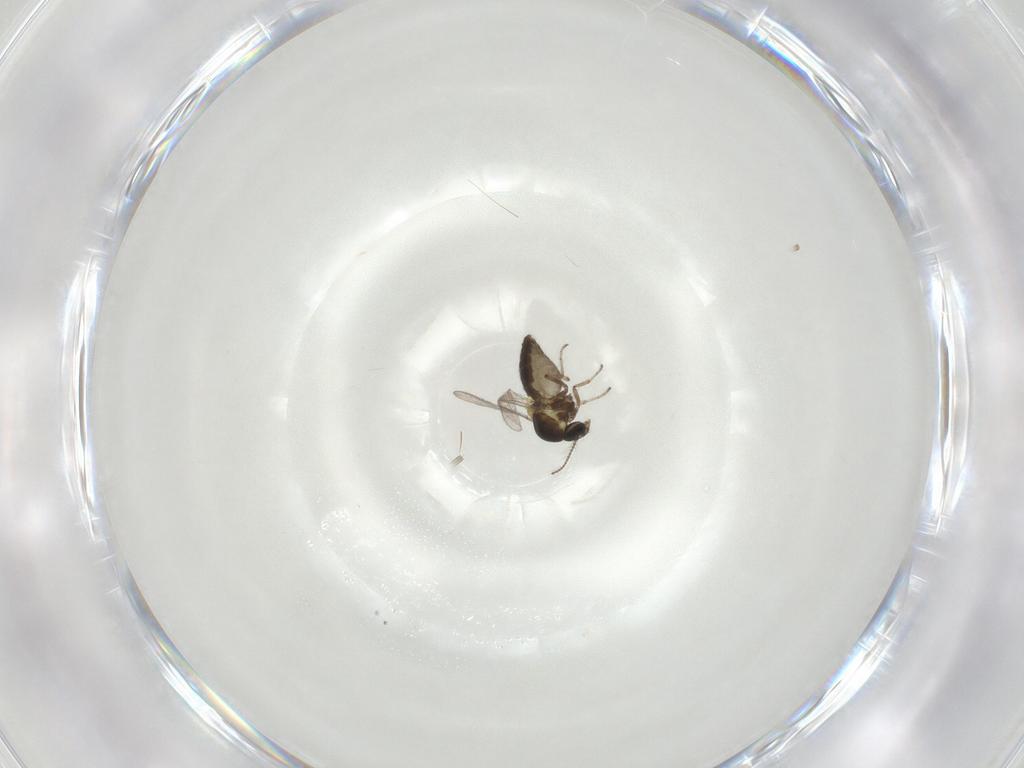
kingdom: Animalia
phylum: Arthropoda
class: Insecta
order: Diptera
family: Ceratopogonidae
